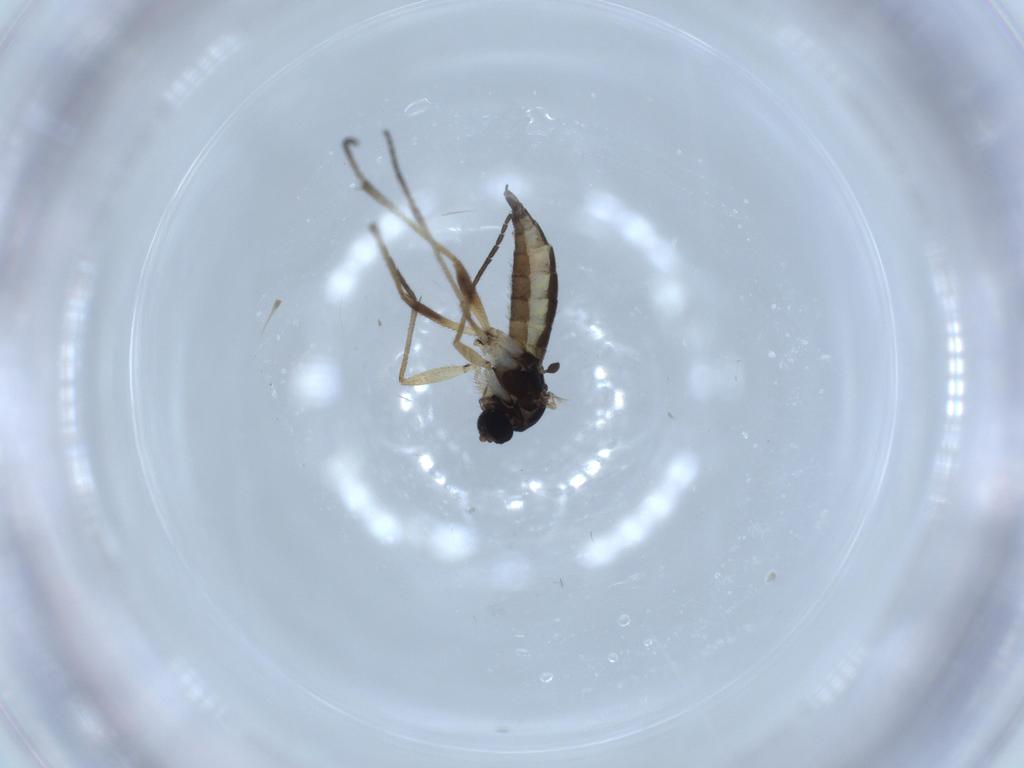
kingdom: Animalia
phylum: Arthropoda
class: Insecta
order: Diptera
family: Sciaridae
